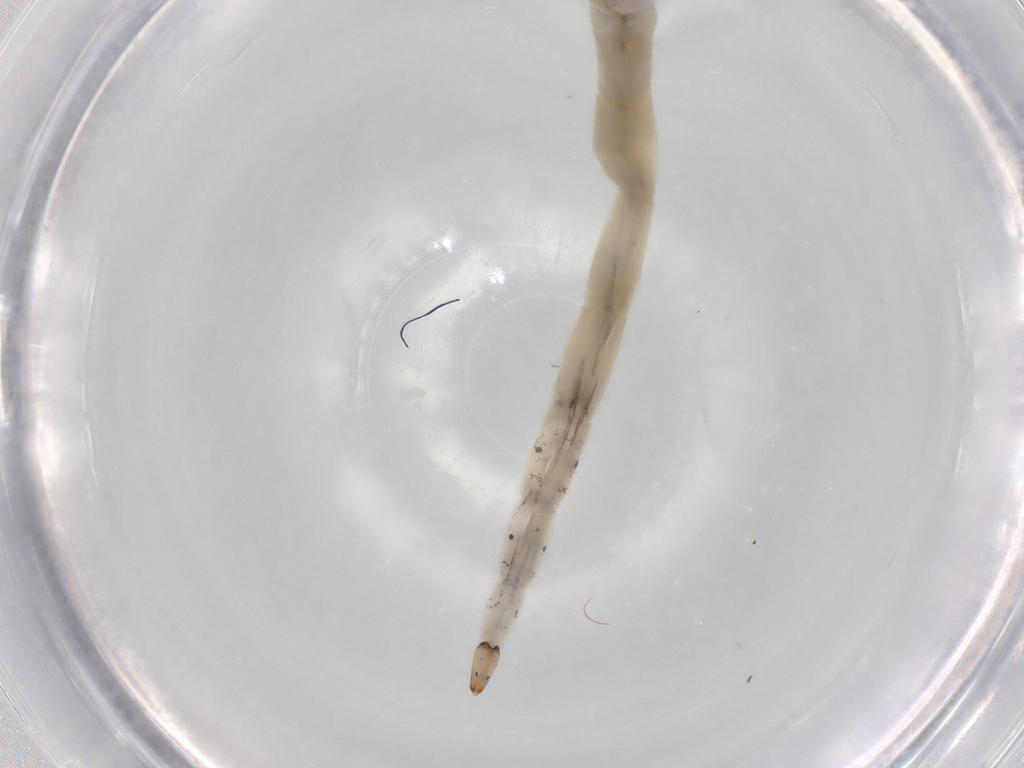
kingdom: Animalia
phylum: Arthropoda
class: Insecta
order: Diptera
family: Ceratopogonidae
